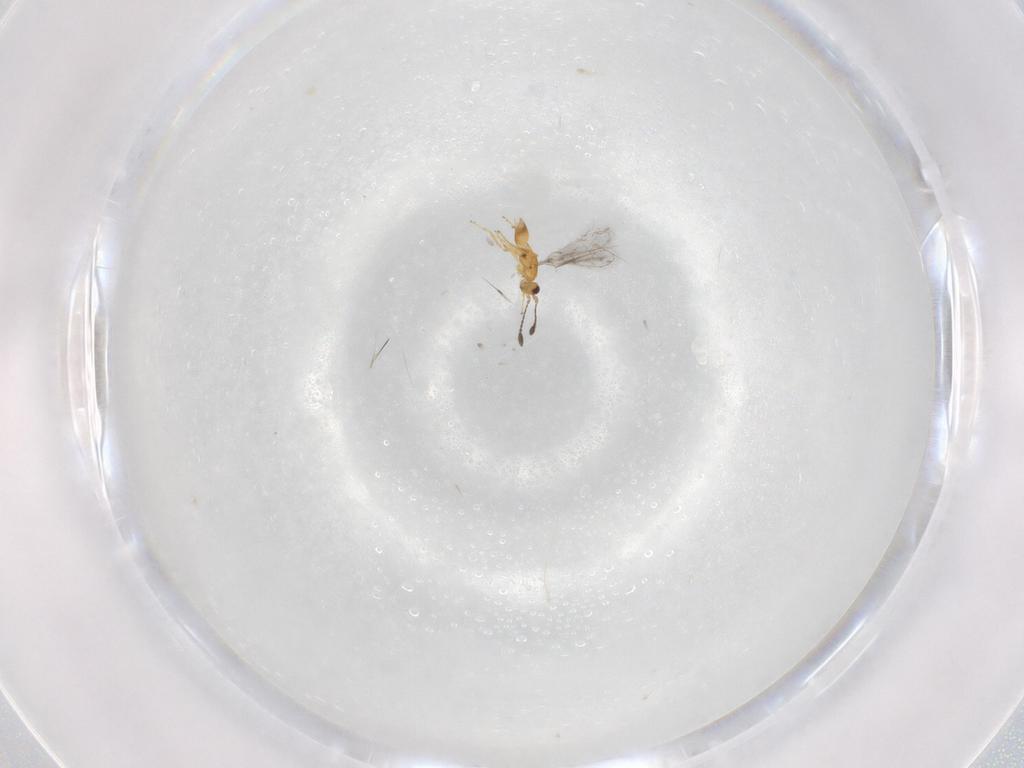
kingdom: Animalia
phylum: Arthropoda
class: Insecta
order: Hymenoptera
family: Mymaridae
